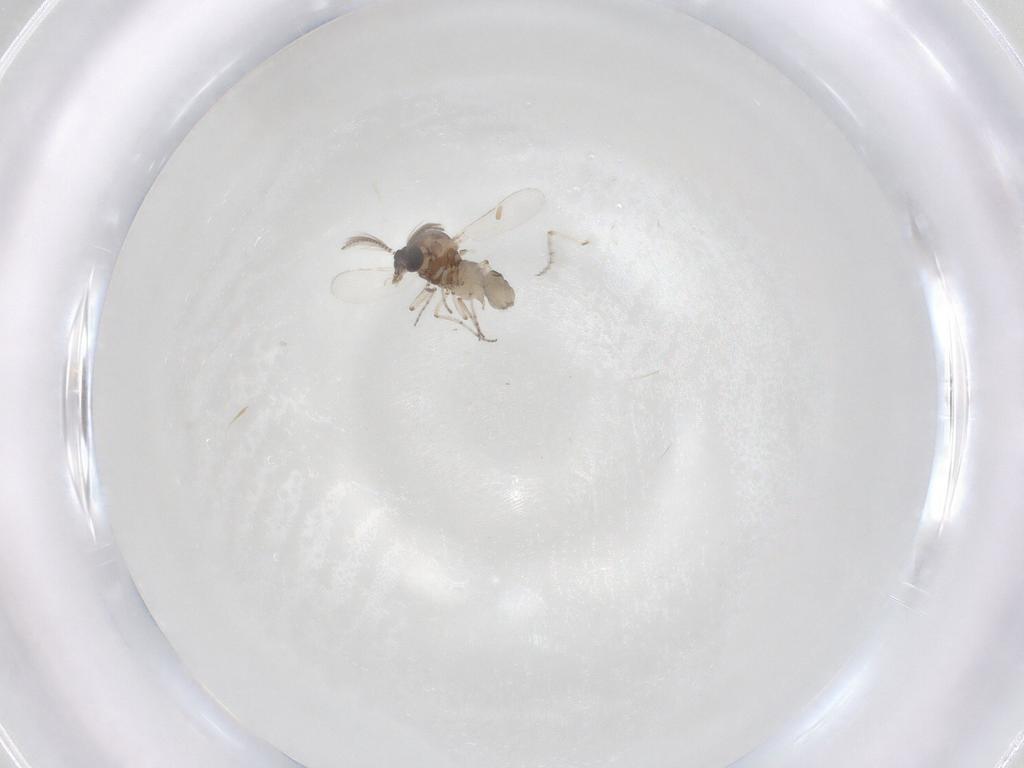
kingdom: Animalia
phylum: Arthropoda
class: Insecta
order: Diptera
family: Ceratopogonidae
